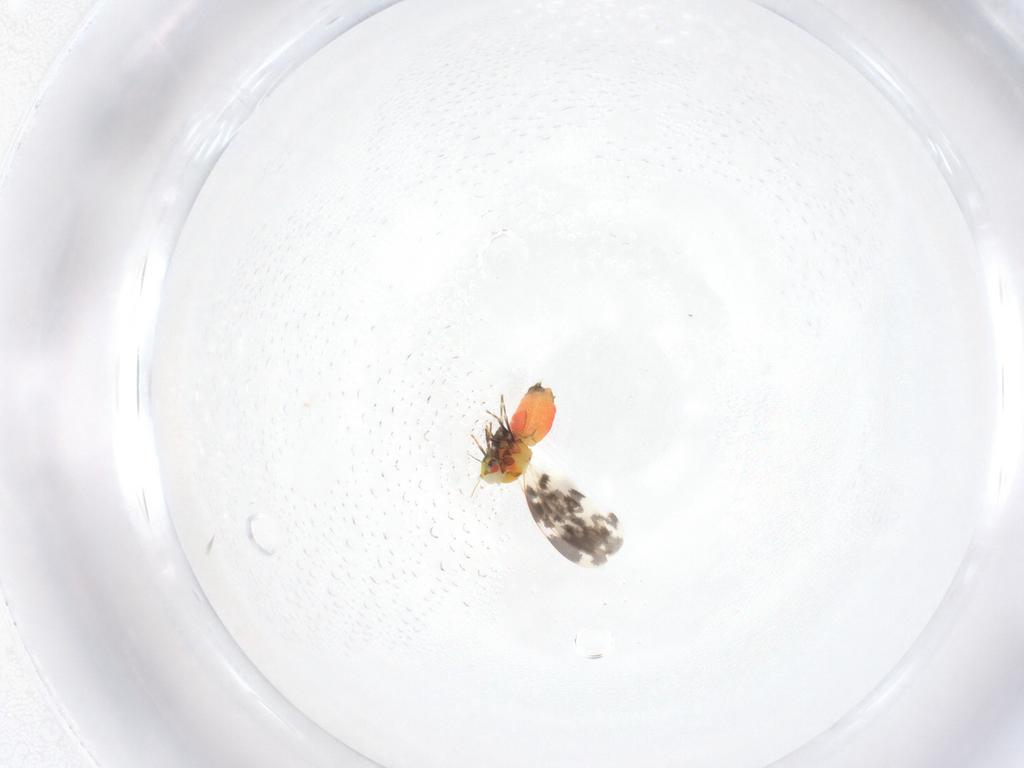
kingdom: Animalia
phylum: Arthropoda
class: Insecta
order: Hemiptera
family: Aleyrodidae
